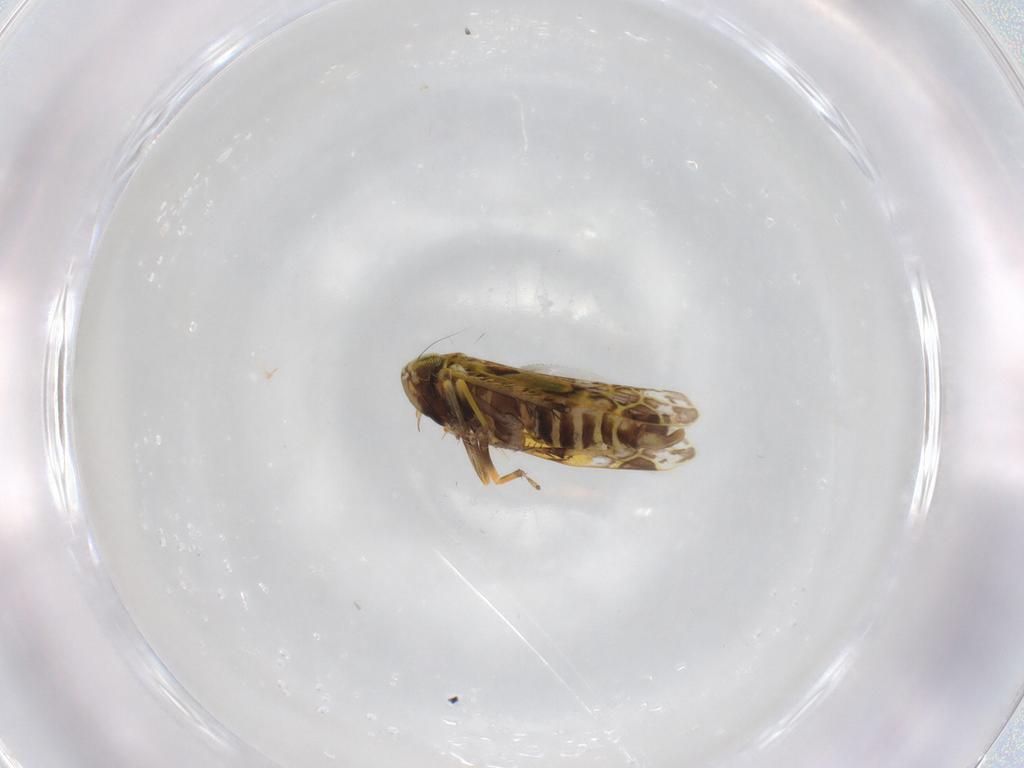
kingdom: Animalia
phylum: Arthropoda
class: Insecta
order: Hemiptera
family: Cicadellidae
